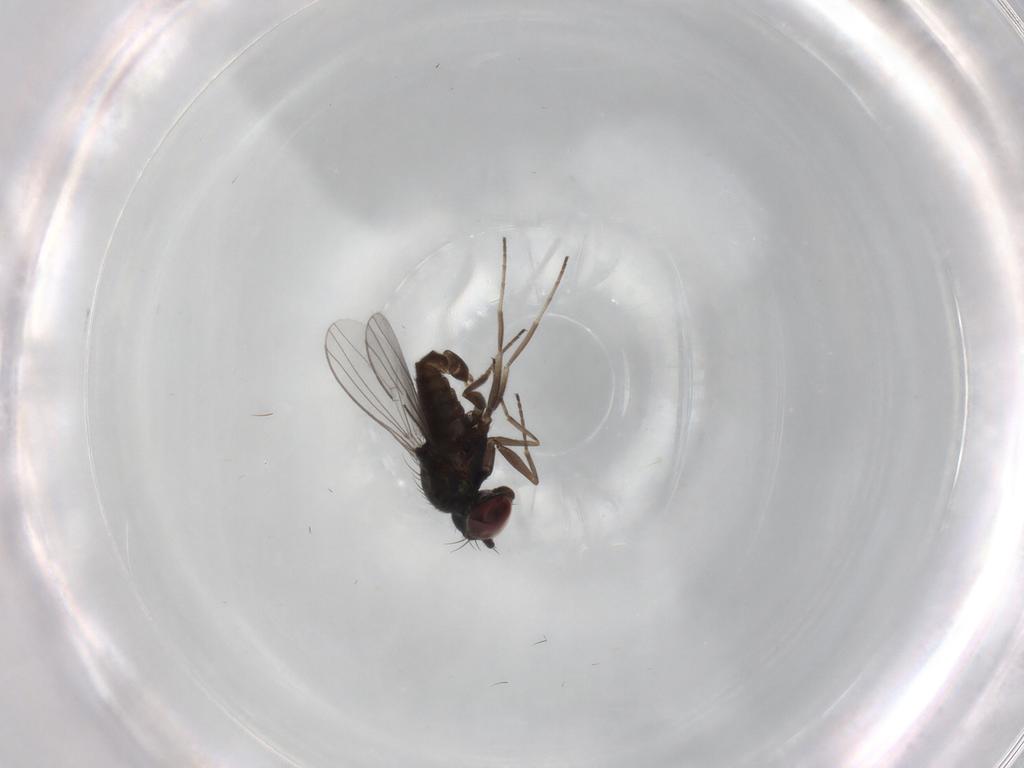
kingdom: Animalia
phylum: Arthropoda
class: Insecta
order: Diptera
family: Dolichopodidae
